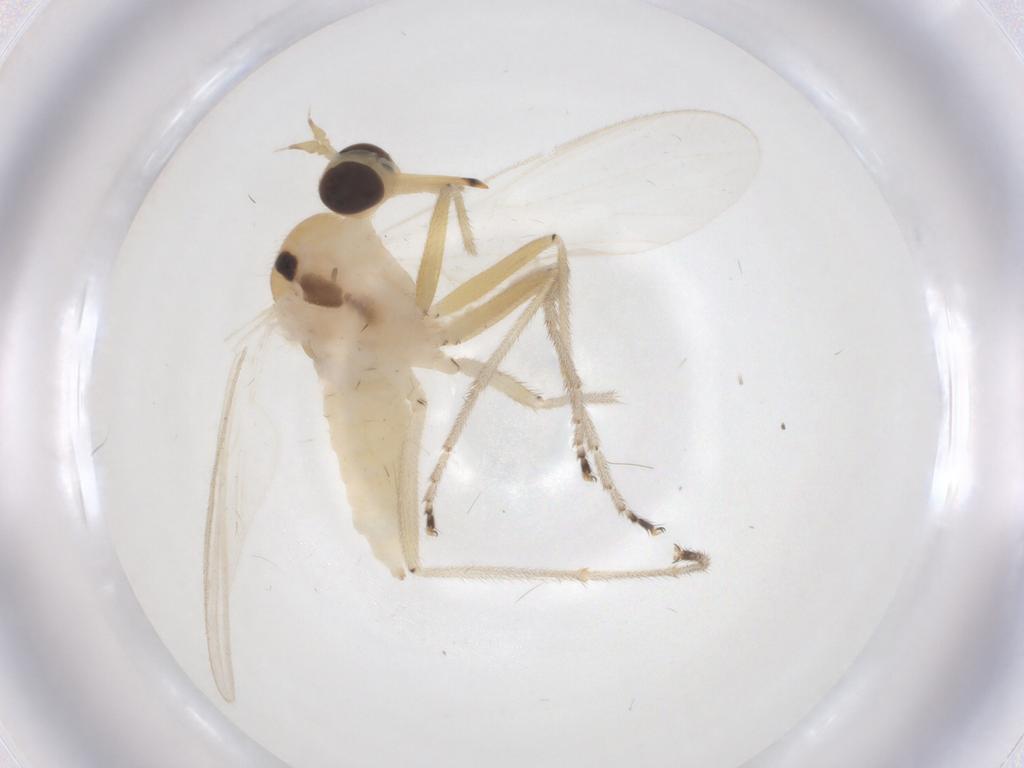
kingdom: Animalia
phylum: Arthropoda
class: Insecta
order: Diptera
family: Empididae
